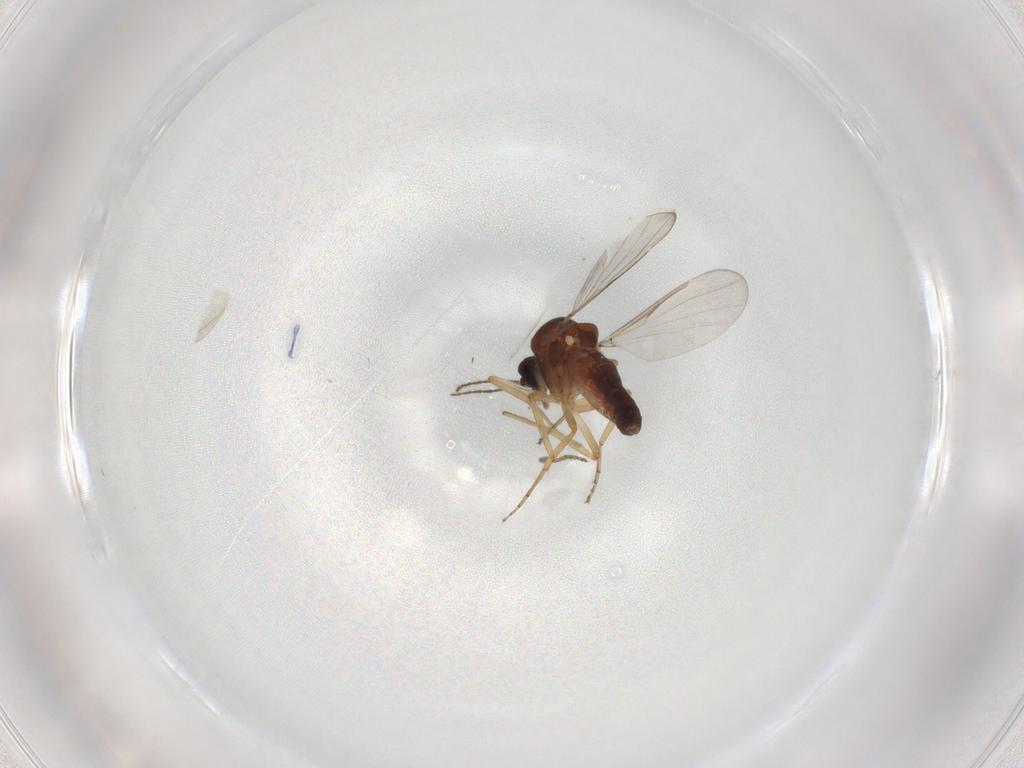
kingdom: Animalia
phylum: Arthropoda
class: Insecta
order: Diptera
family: Ceratopogonidae
